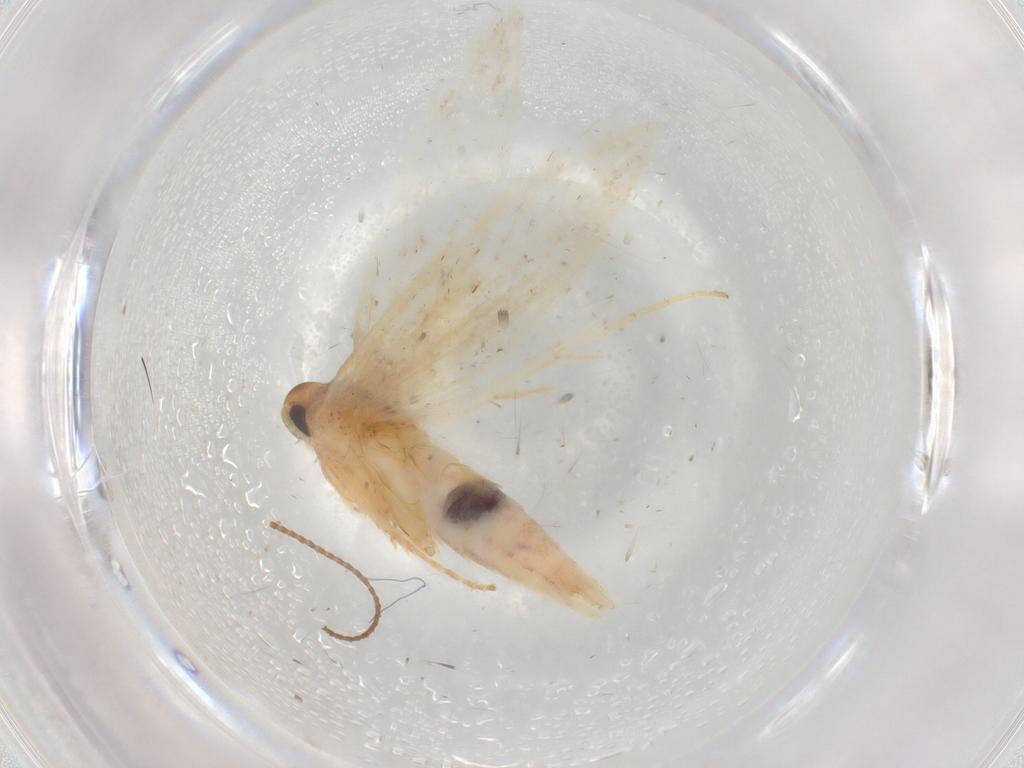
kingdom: Animalia
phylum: Arthropoda
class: Insecta
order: Lepidoptera
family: Gelechiidae
